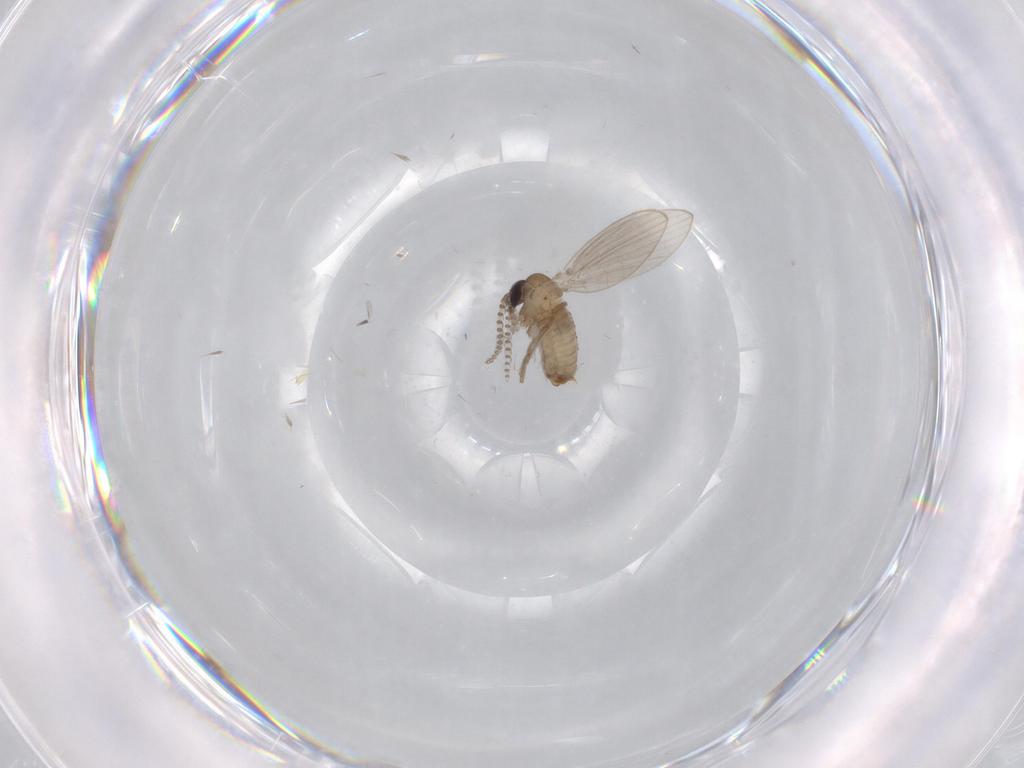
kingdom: Animalia
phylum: Arthropoda
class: Insecta
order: Diptera
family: Psychodidae
